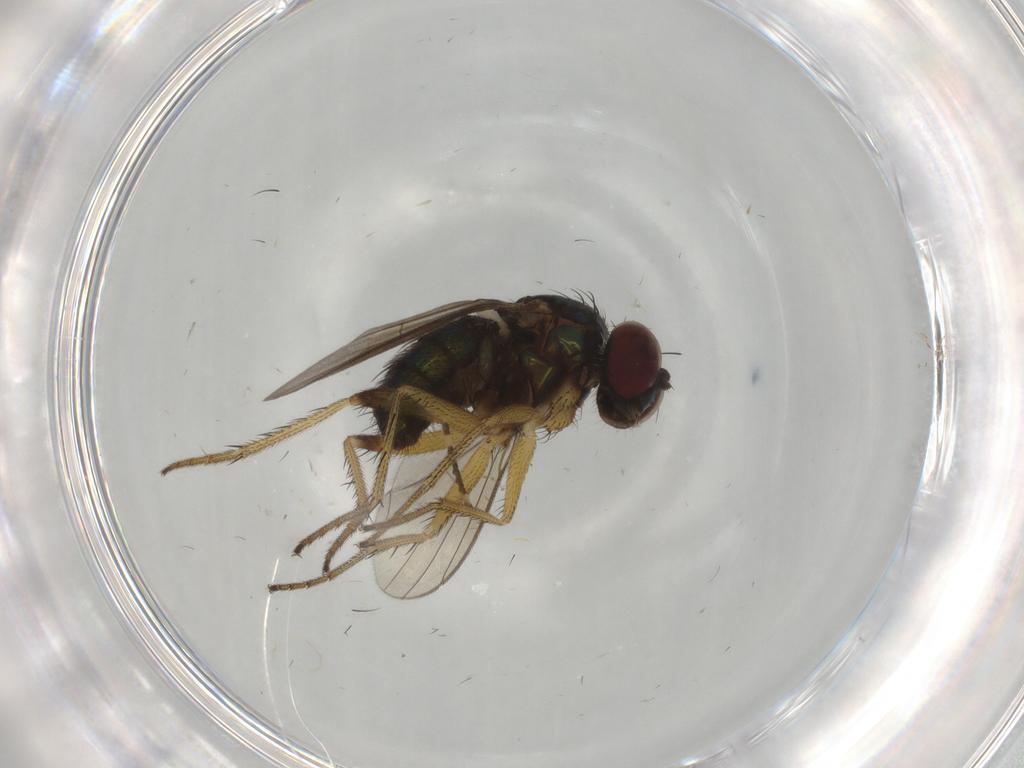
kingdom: Animalia
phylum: Arthropoda
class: Insecta
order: Diptera
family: Dolichopodidae
